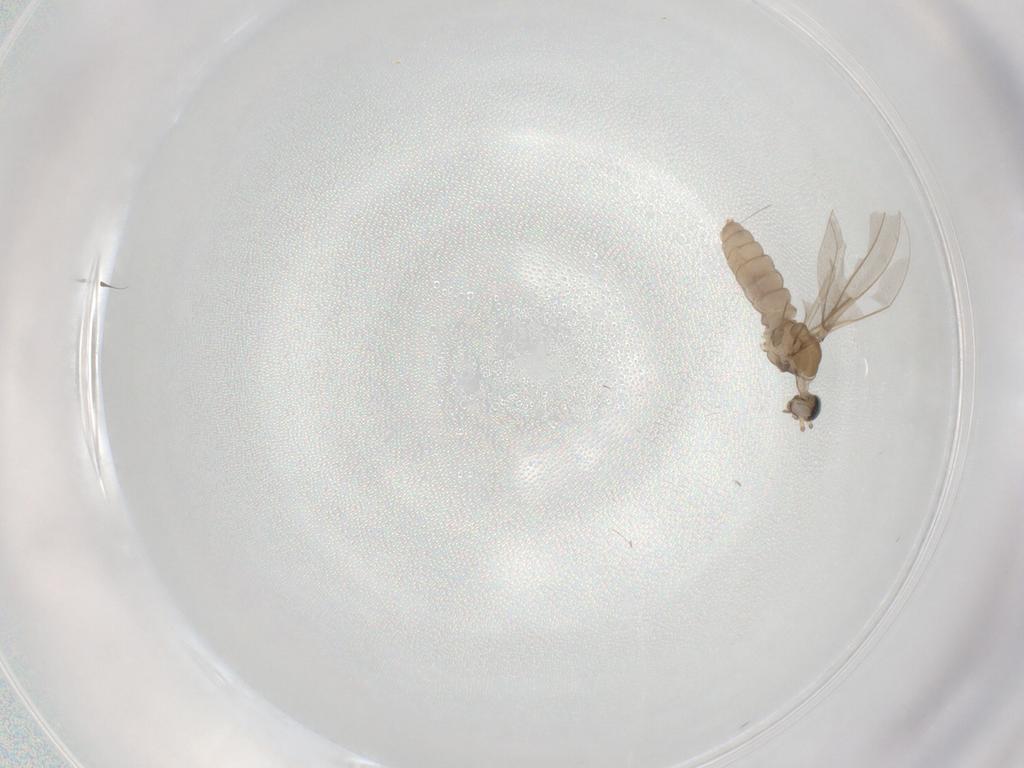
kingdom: Animalia
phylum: Arthropoda
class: Insecta
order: Diptera
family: Cecidomyiidae
